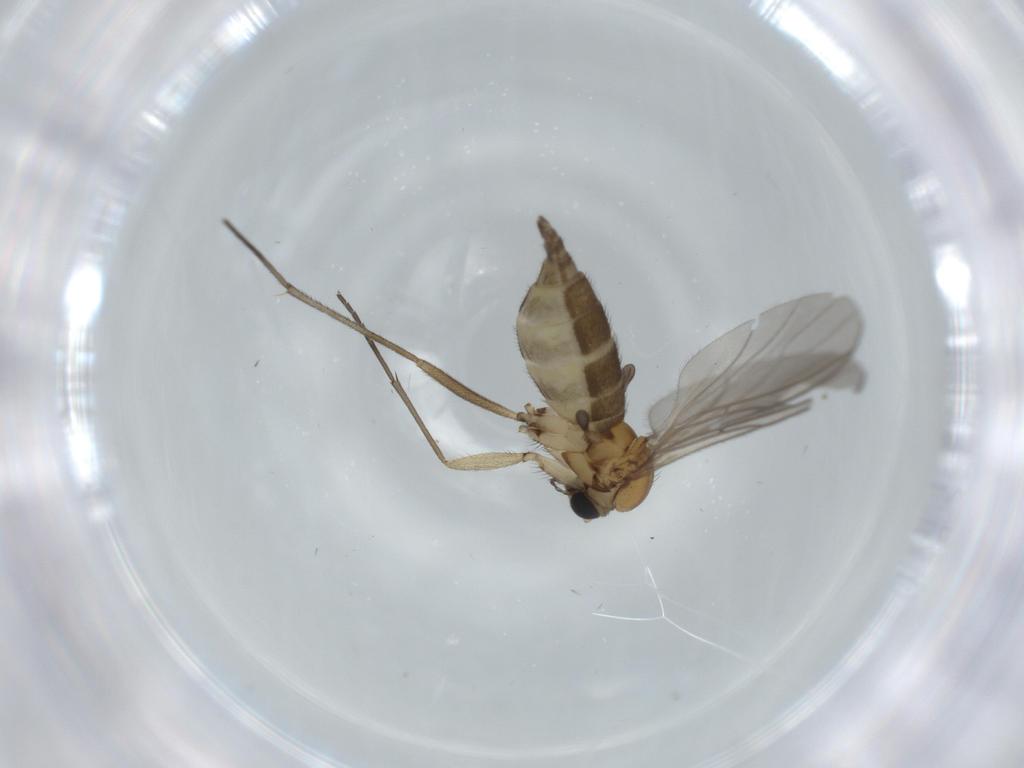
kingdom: Animalia
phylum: Arthropoda
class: Insecta
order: Diptera
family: Sciaridae
